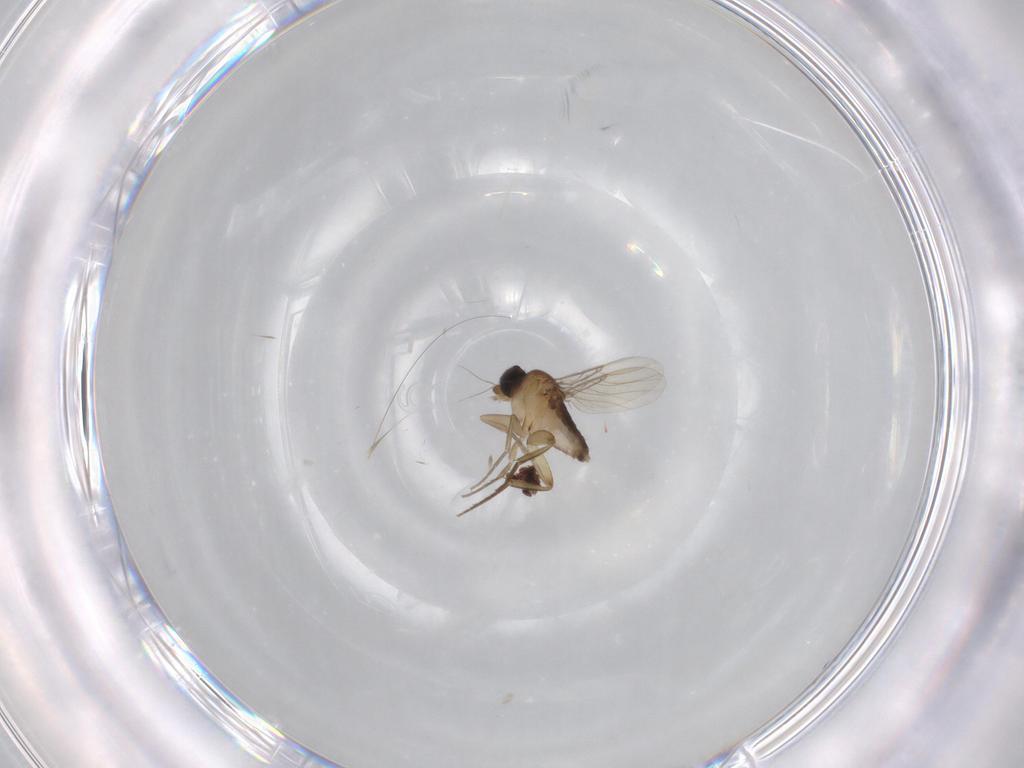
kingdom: Animalia
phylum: Arthropoda
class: Insecta
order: Diptera
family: Phoridae
